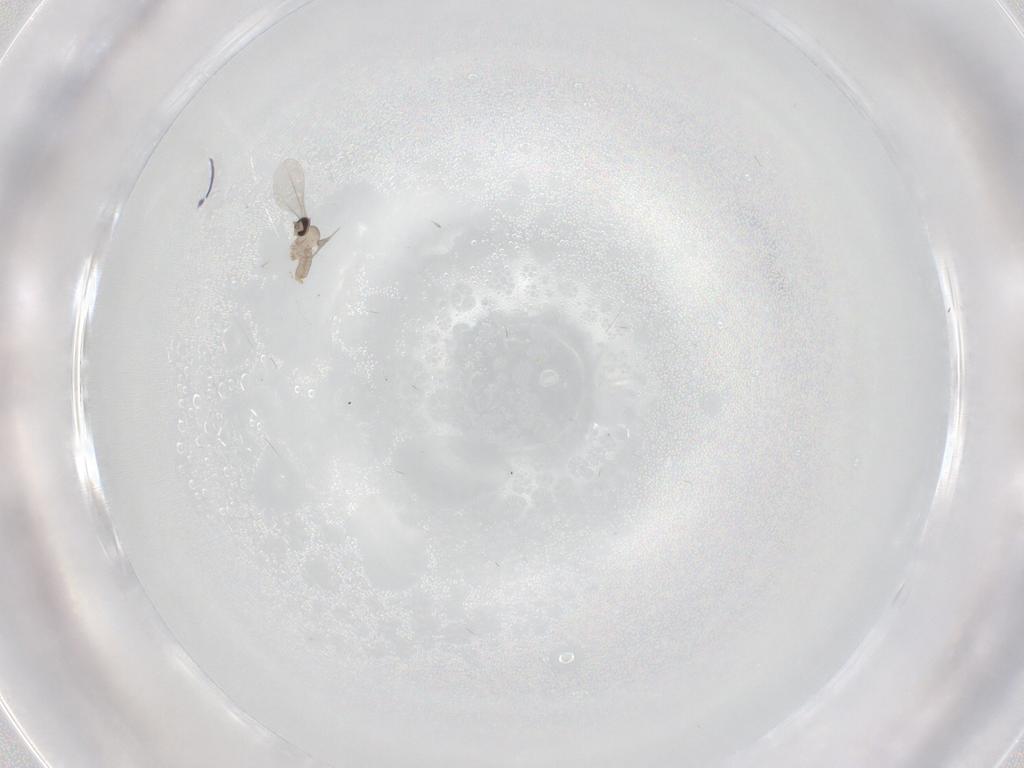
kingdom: Animalia
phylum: Arthropoda
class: Insecta
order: Diptera
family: Cecidomyiidae
